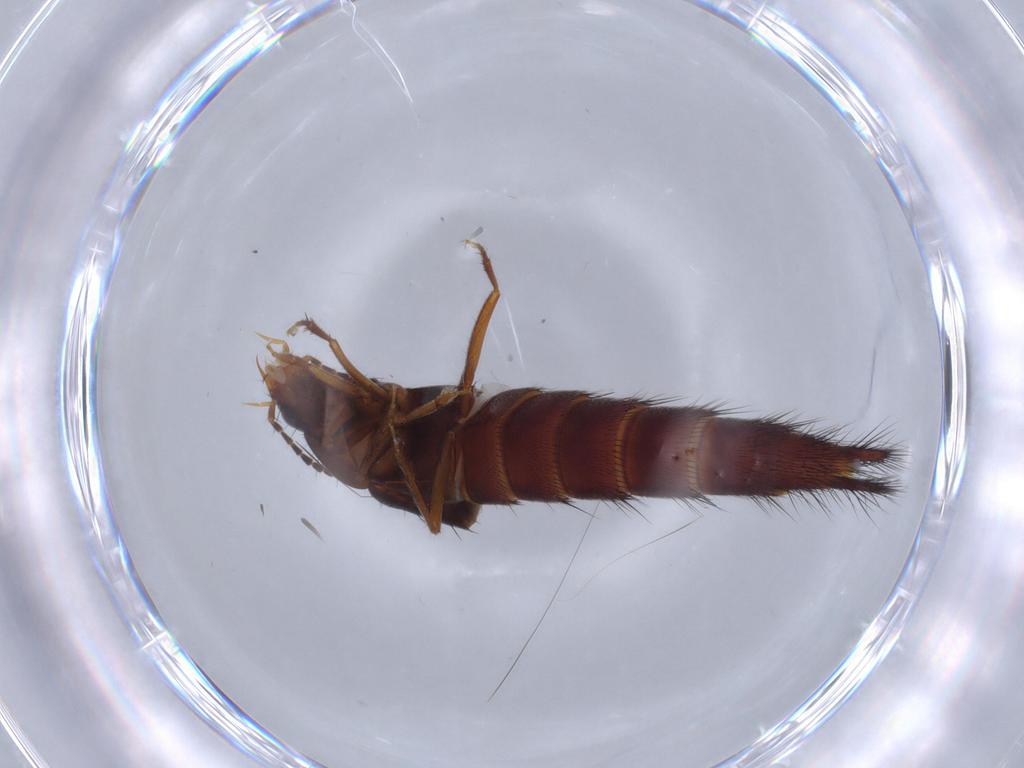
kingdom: Animalia
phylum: Arthropoda
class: Insecta
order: Coleoptera
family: Staphylinidae
